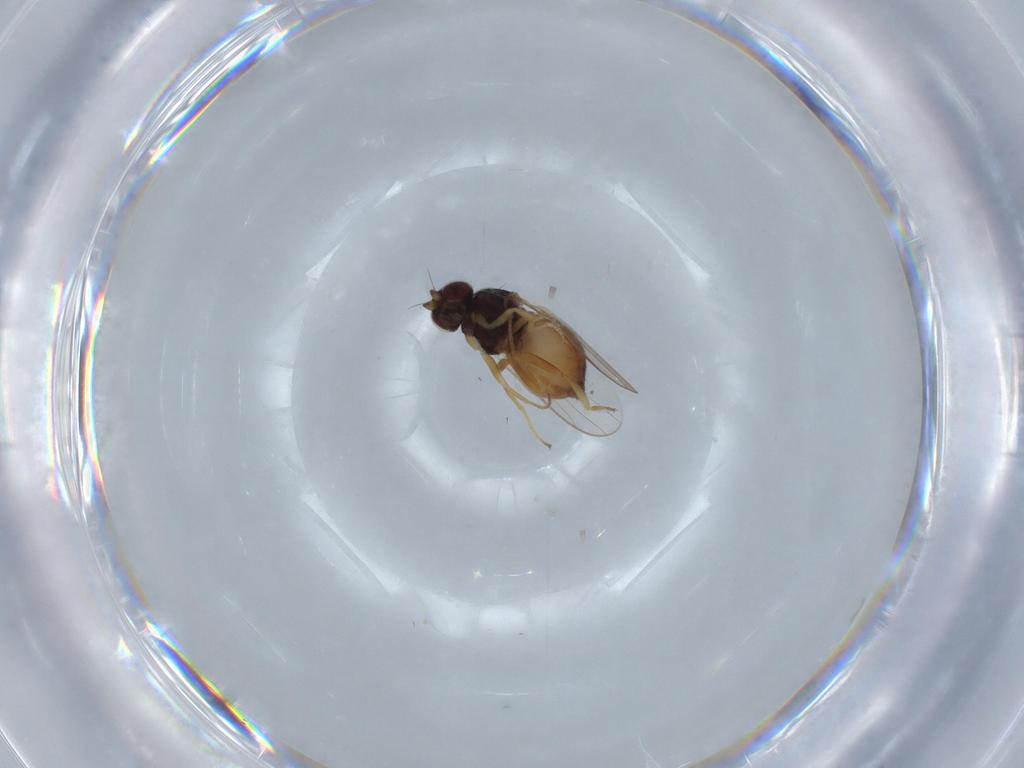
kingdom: Animalia
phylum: Arthropoda
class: Insecta
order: Diptera
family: Chloropidae
